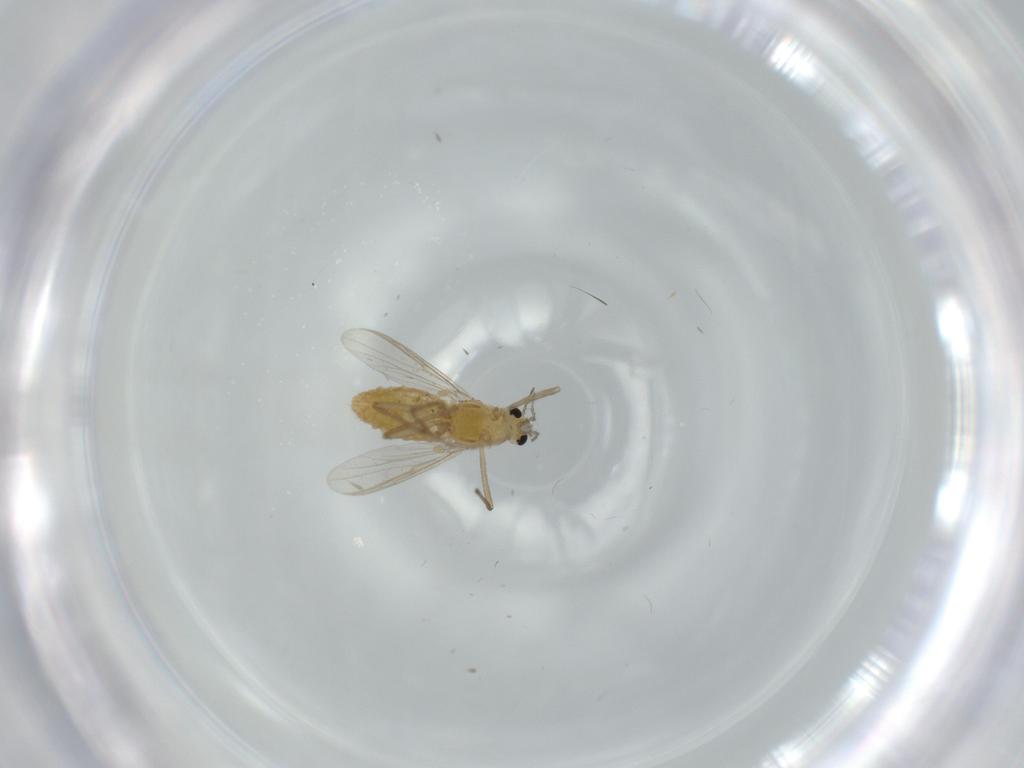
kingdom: Animalia
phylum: Arthropoda
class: Insecta
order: Diptera
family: Chironomidae
